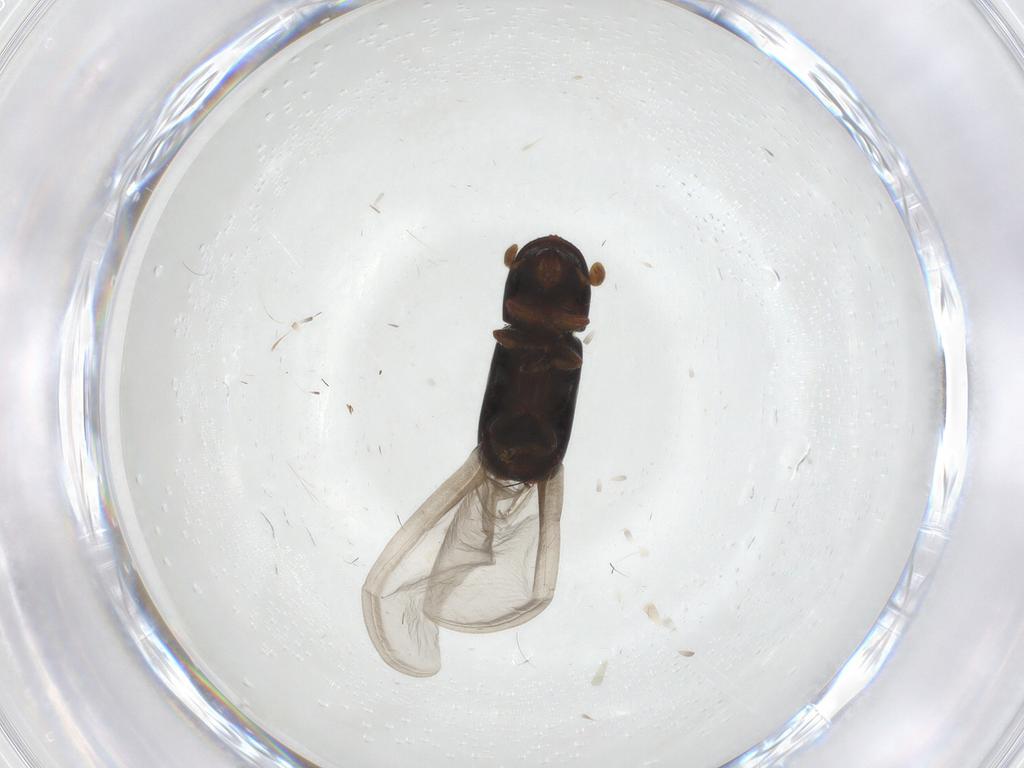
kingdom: Animalia
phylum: Arthropoda
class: Insecta
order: Coleoptera
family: Curculionidae
